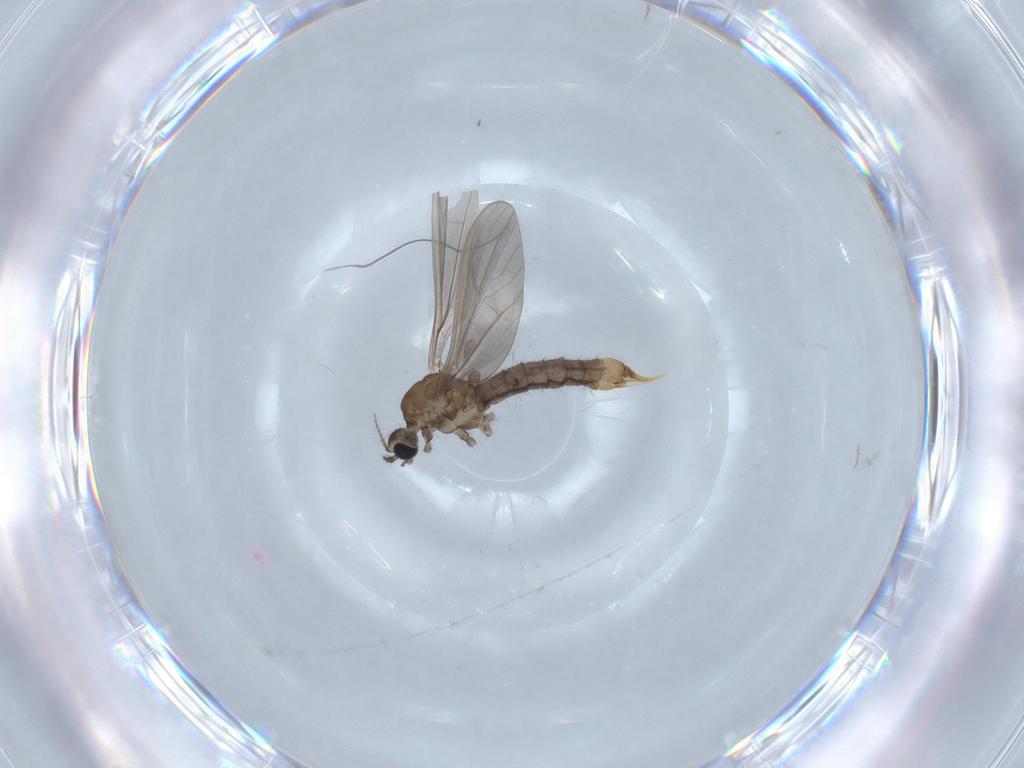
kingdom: Animalia
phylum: Arthropoda
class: Insecta
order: Diptera
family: Limoniidae
